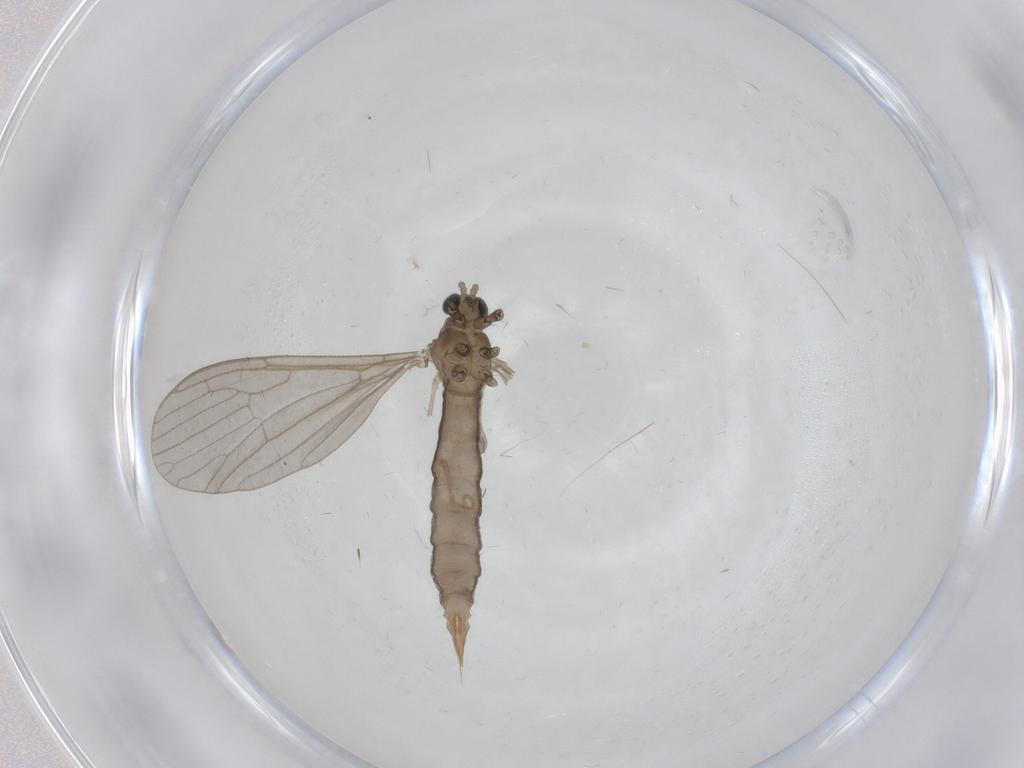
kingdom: Animalia
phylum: Arthropoda
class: Insecta
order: Diptera
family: Limoniidae
